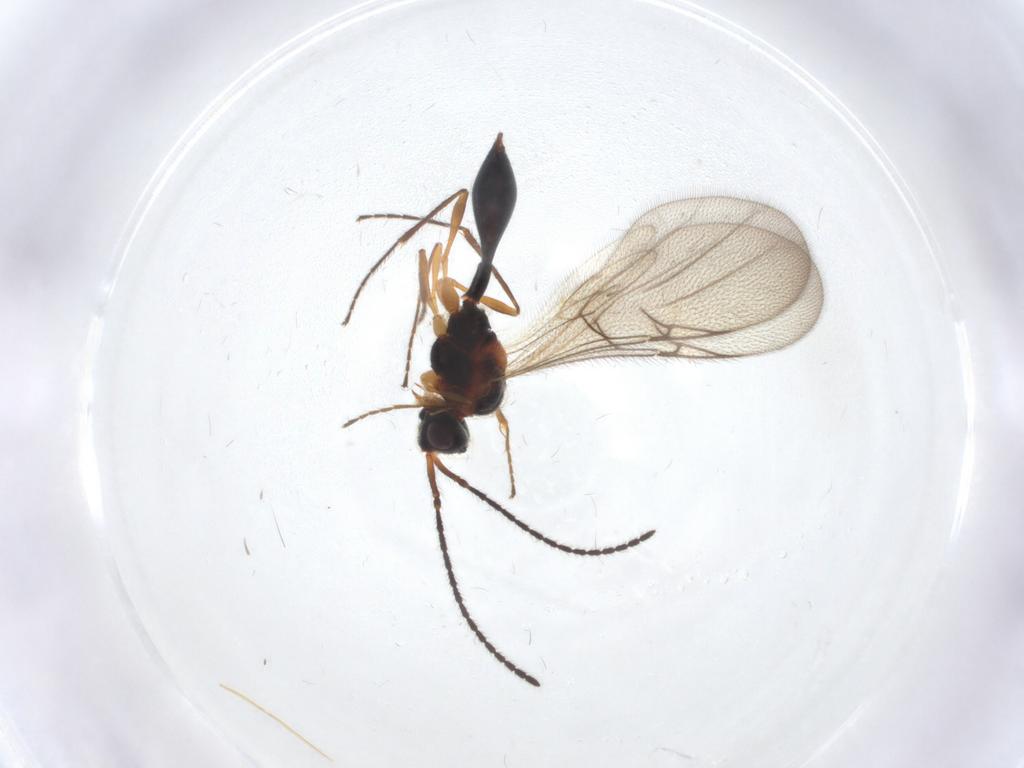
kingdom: Animalia
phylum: Arthropoda
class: Insecta
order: Hymenoptera
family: Diapriidae
